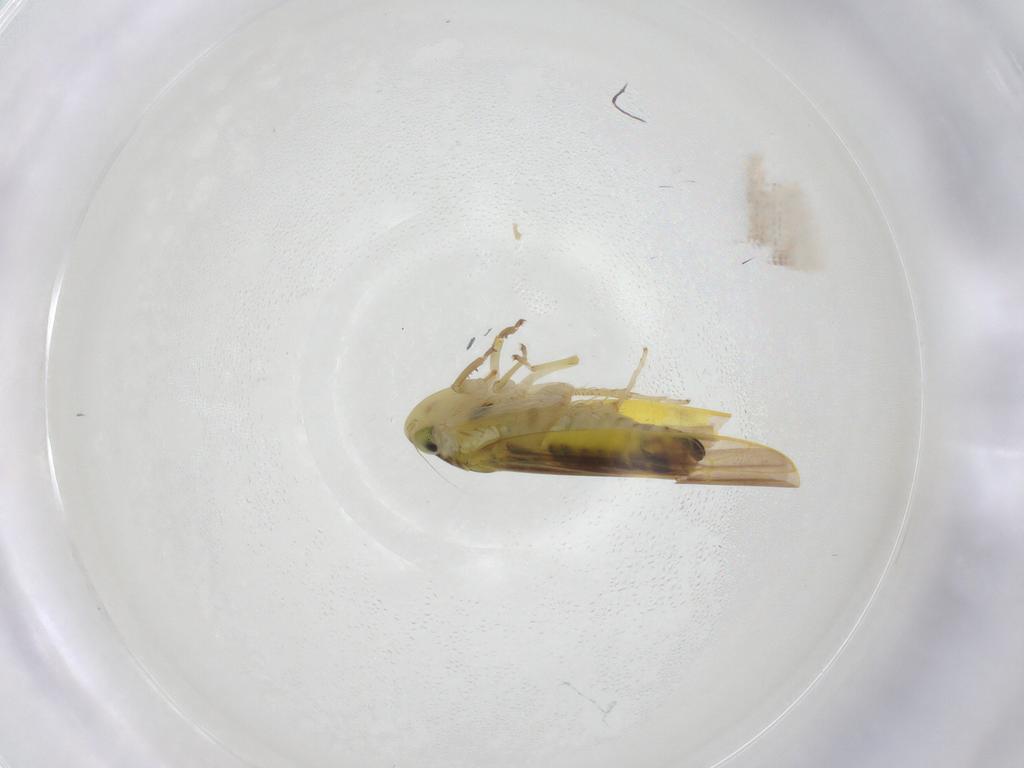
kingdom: Animalia
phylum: Arthropoda
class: Insecta
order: Hemiptera
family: Cicadellidae
